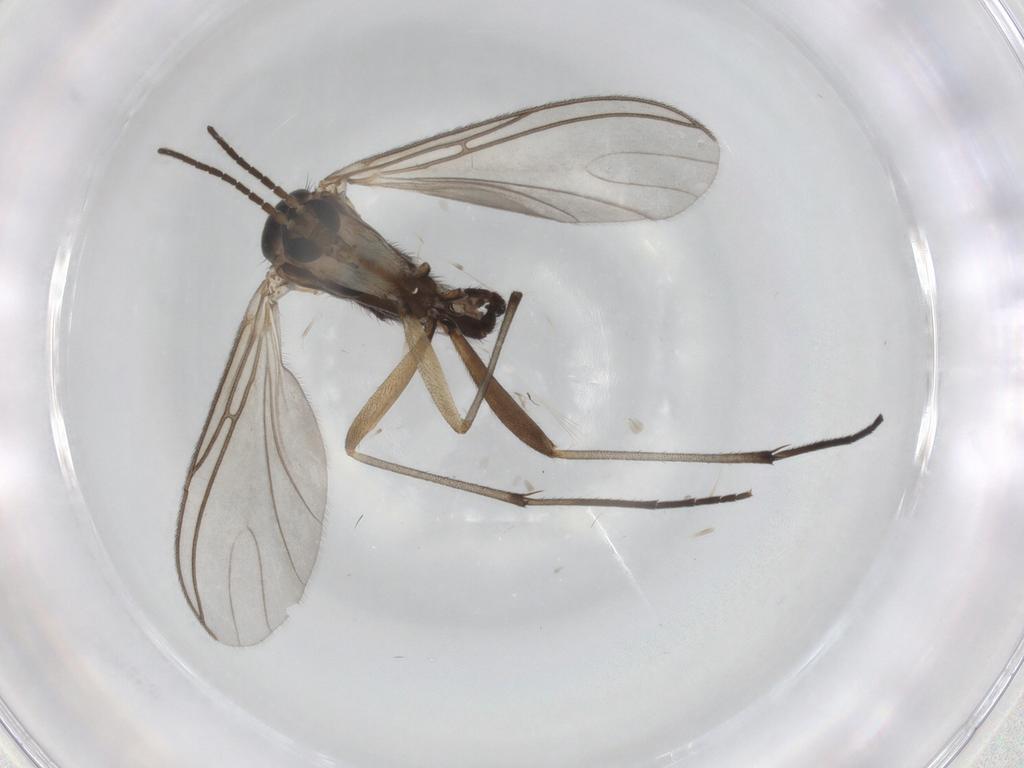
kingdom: Animalia
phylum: Arthropoda
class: Insecta
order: Diptera
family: Sciaridae
